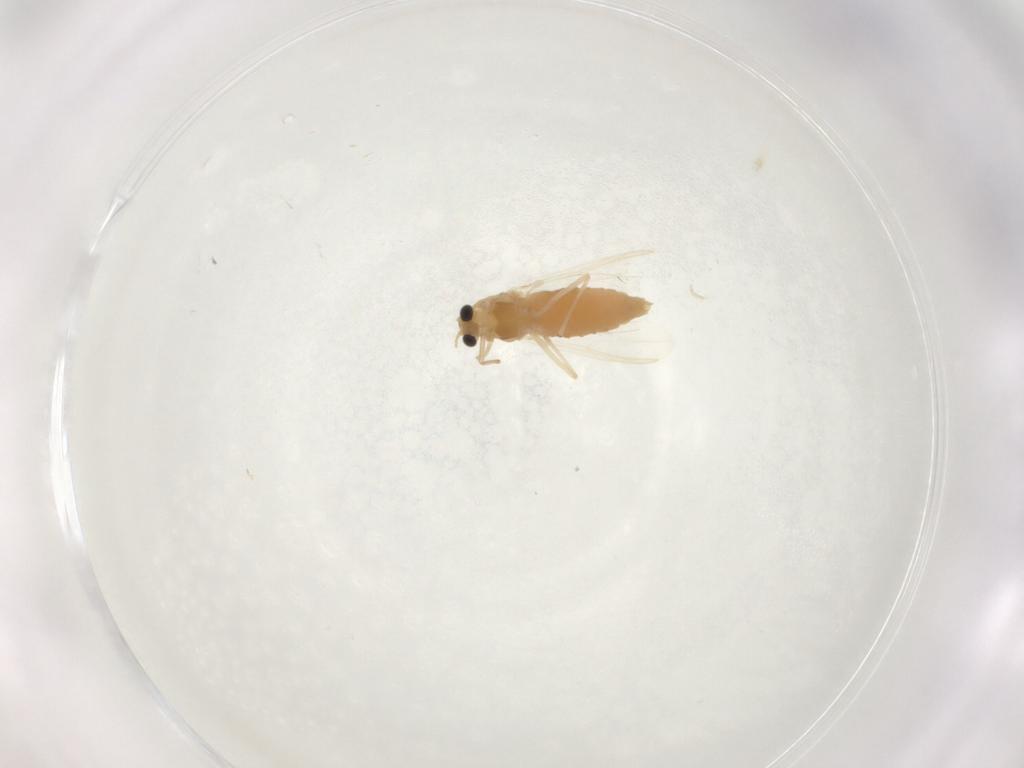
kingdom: Animalia
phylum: Arthropoda
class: Insecta
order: Diptera
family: Chironomidae
